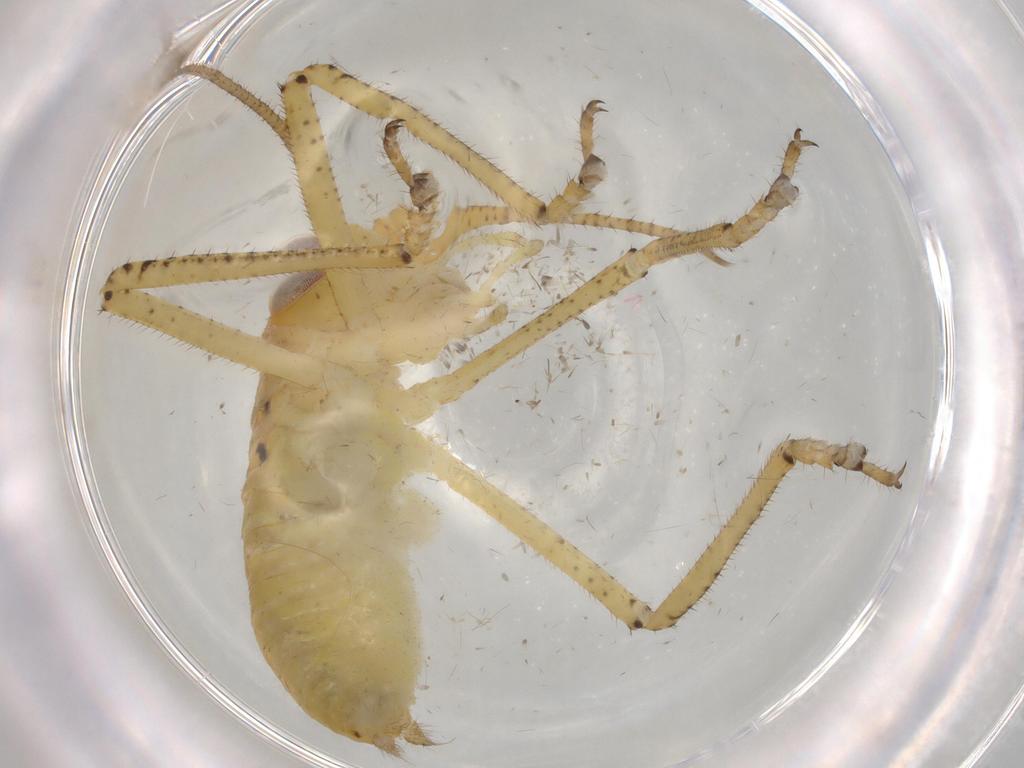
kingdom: Animalia
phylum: Arthropoda
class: Insecta
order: Orthoptera
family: Tettigoniidae
